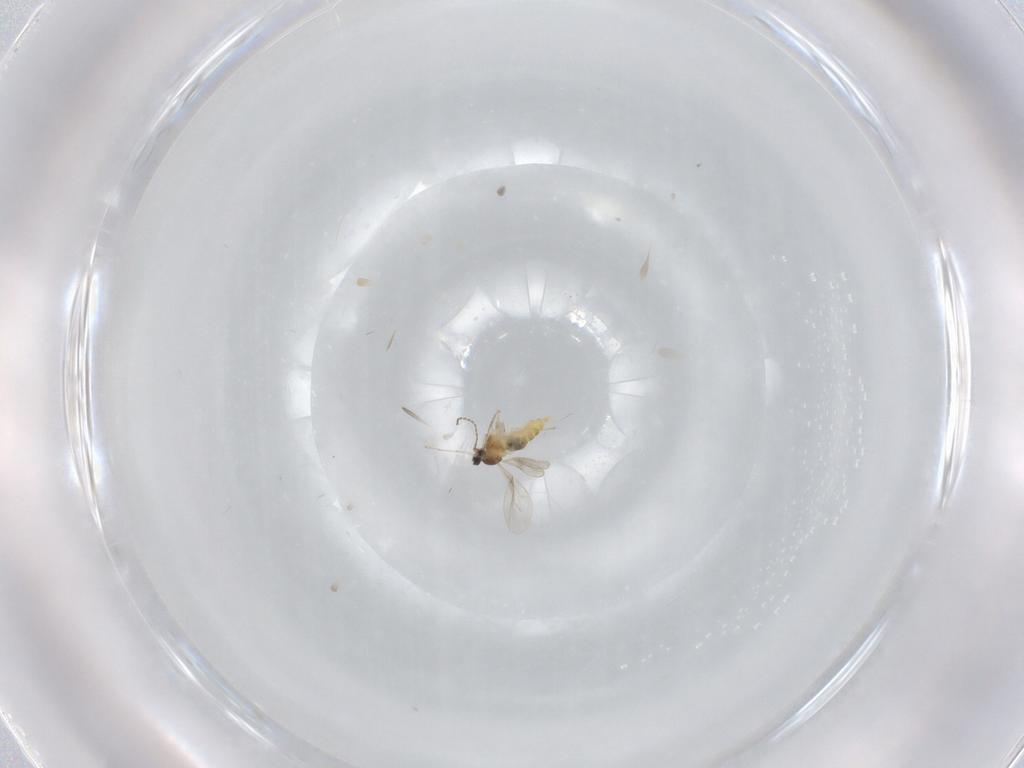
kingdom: Animalia
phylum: Arthropoda
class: Insecta
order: Diptera
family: Cecidomyiidae
